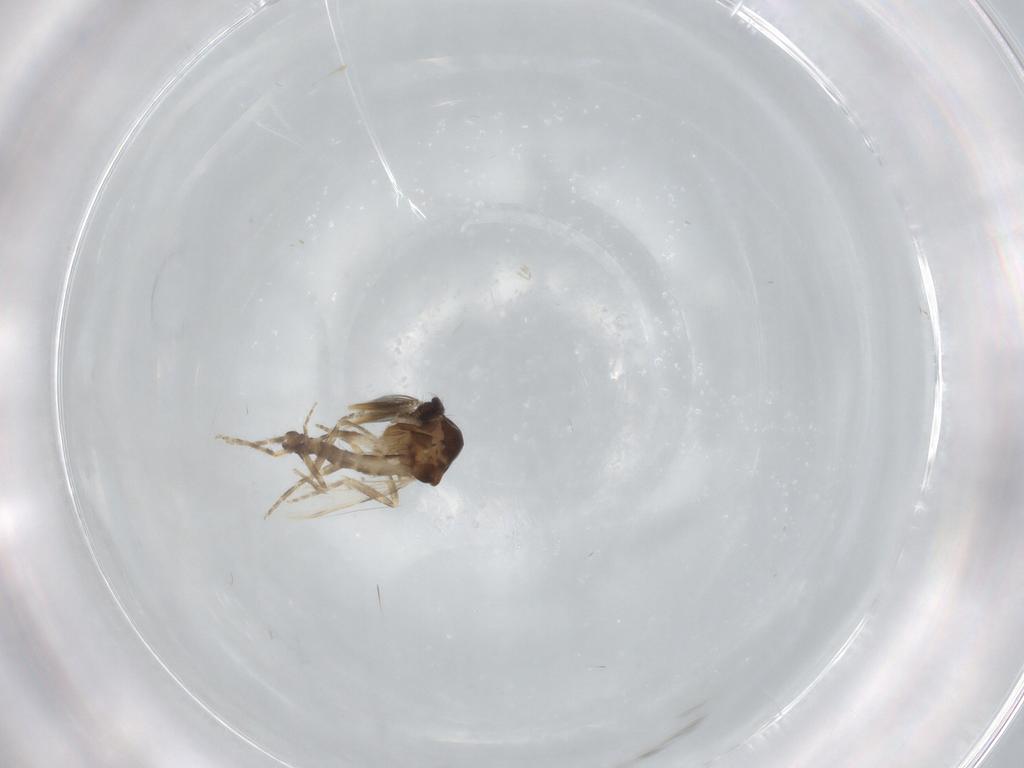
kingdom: Animalia
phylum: Arthropoda
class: Insecta
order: Diptera
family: Ceratopogonidae
